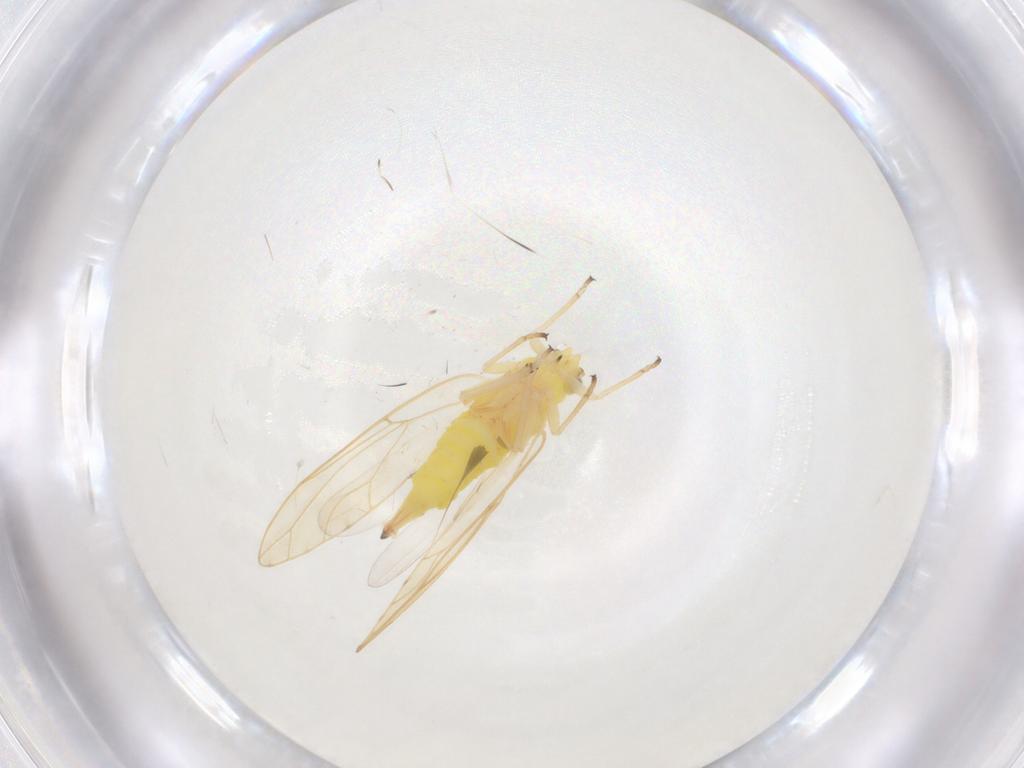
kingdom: Animalia
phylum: Arthropoda
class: Insecta
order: Hemiptera
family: Psylloidea_incertae_sedis
